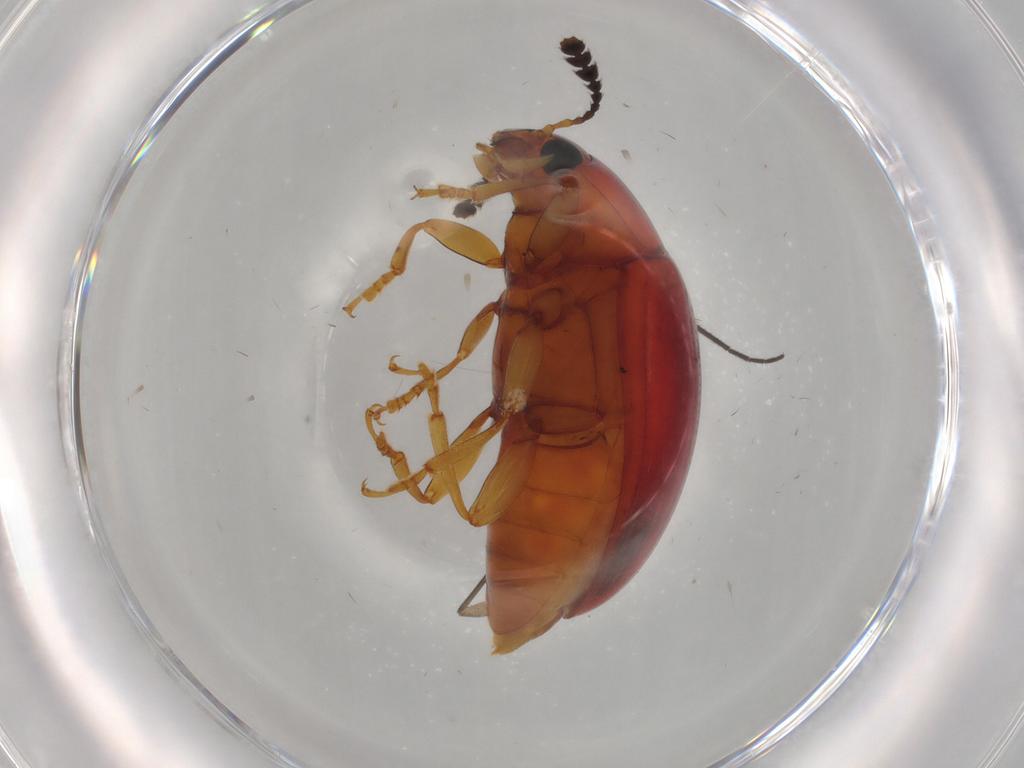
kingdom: Animalia
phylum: Arthropoda
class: Insecta
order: Coleoptera
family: Erotylidae
